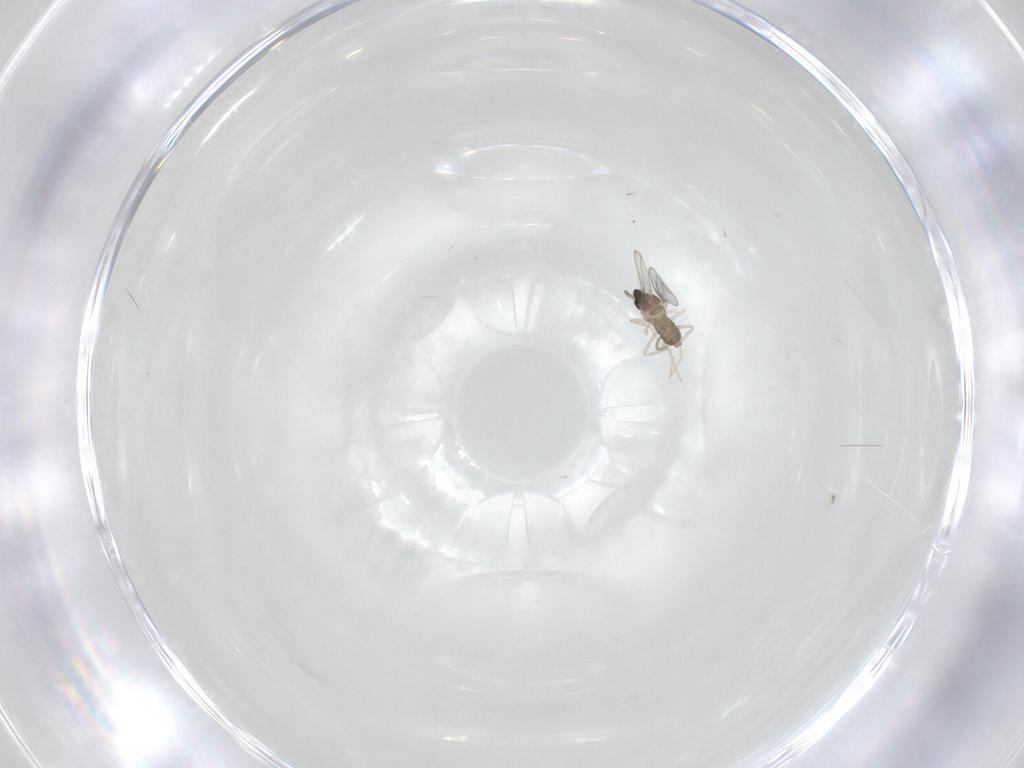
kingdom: Animalia
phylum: Arthropoda
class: Insecta
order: Diptera
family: Cecidomyiidae
